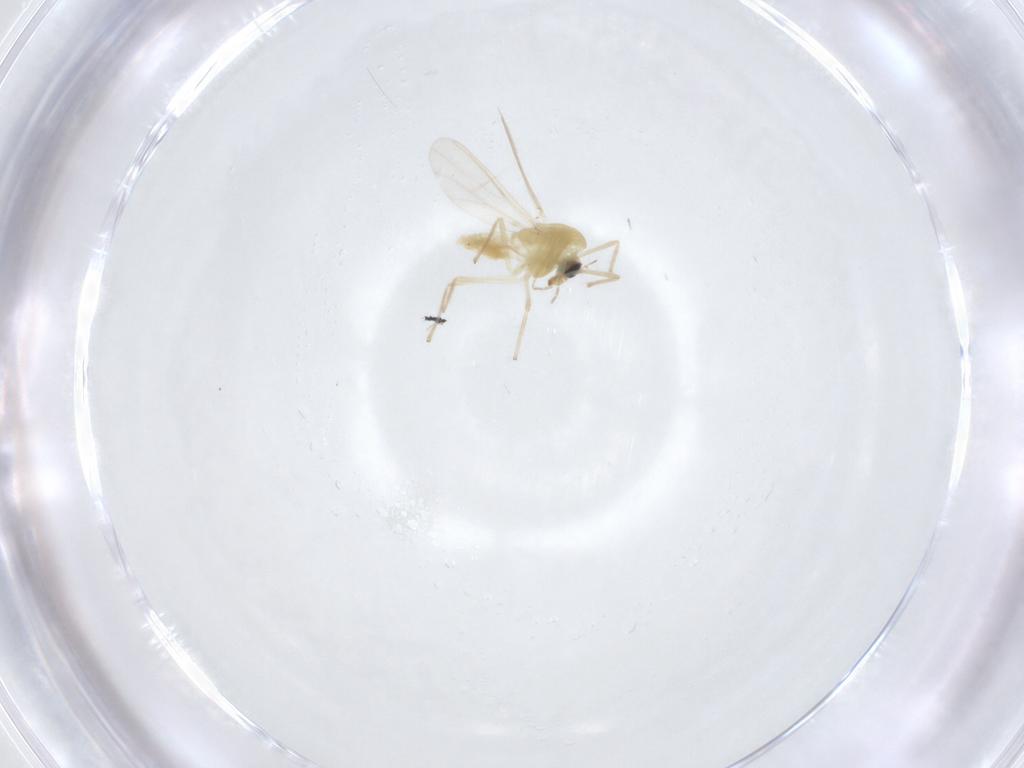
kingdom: Animalia
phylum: Arthropoda
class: Insecta
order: Diptera
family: Chironomidae
